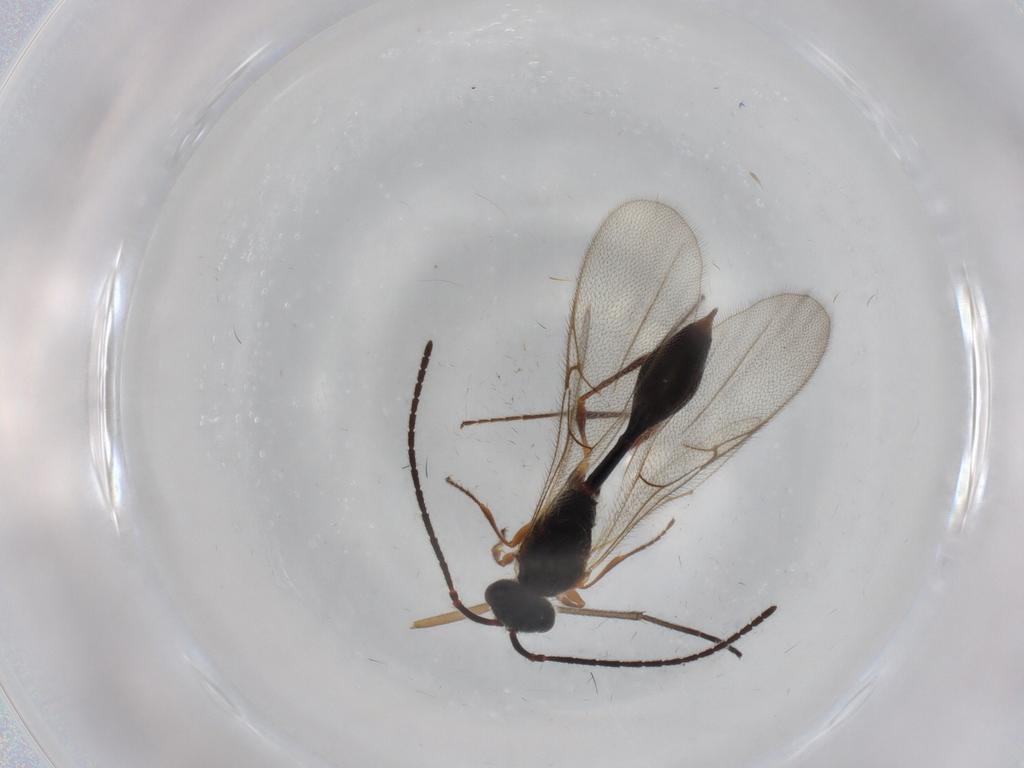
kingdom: Animalia
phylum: Arthropoda
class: Insecta
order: Hymenoptera
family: Diapriidae
